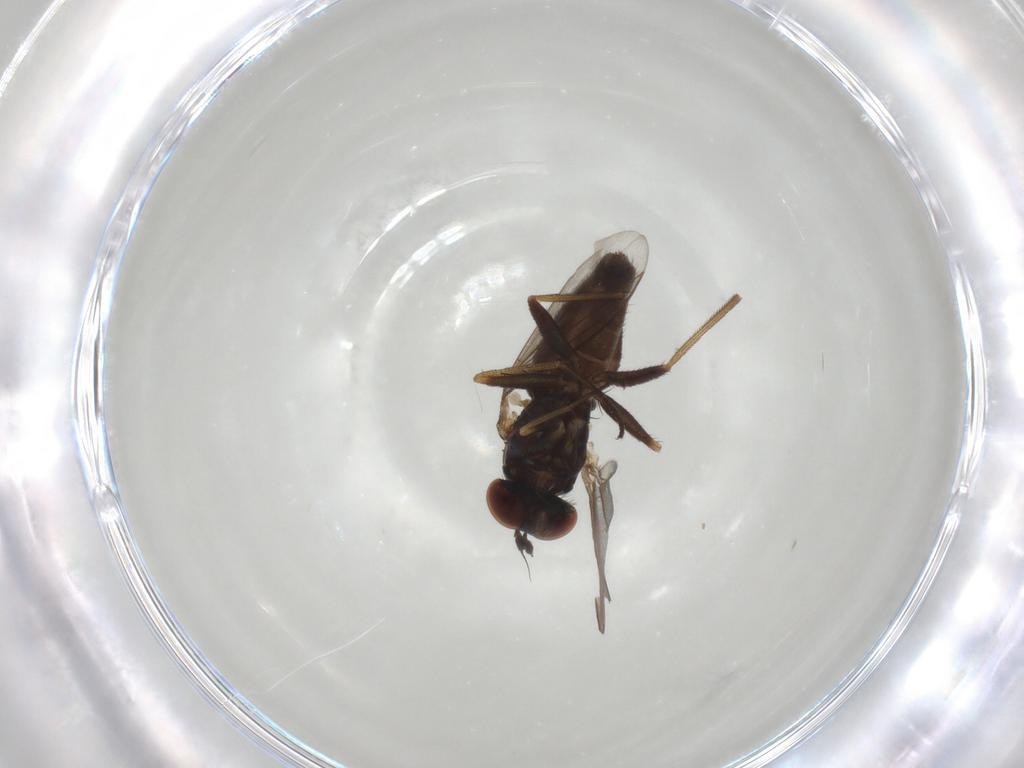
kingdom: Animalia
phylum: Arthropoda
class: Insecta
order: Diptera
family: Dolichopodidae
